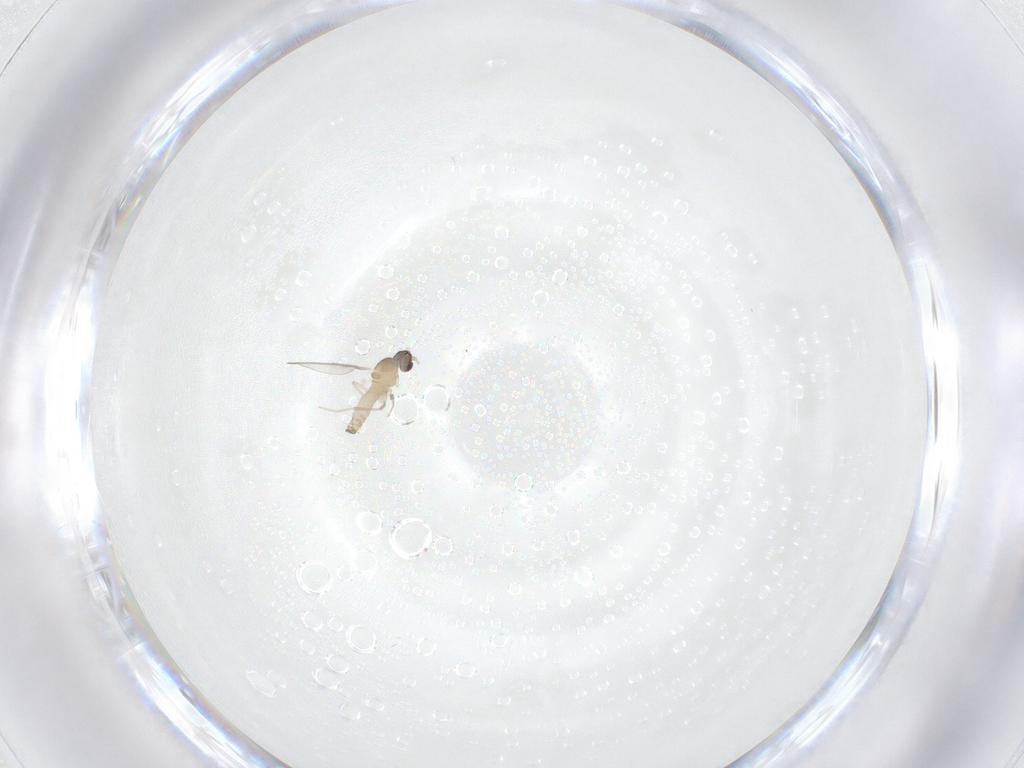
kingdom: Animalia
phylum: Arthropoda
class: Insecta
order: Diptera
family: Cecidomyiidae
